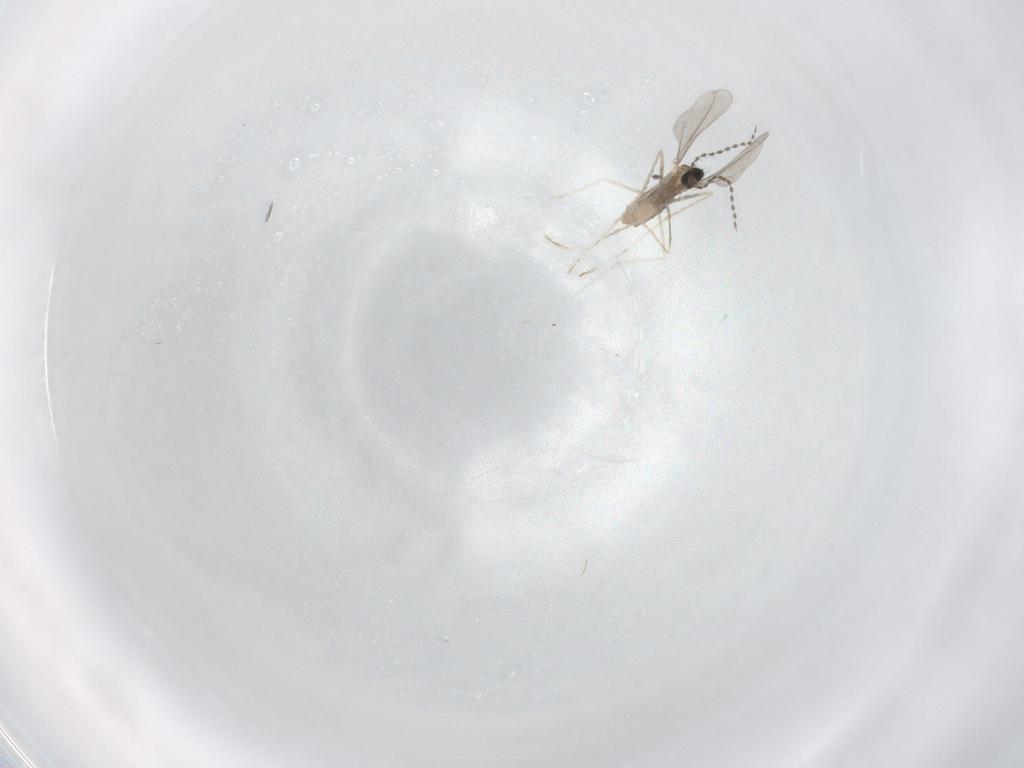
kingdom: Animalia
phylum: Arthropoda
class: Insecta
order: Diptera
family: Cecidomyiidae
